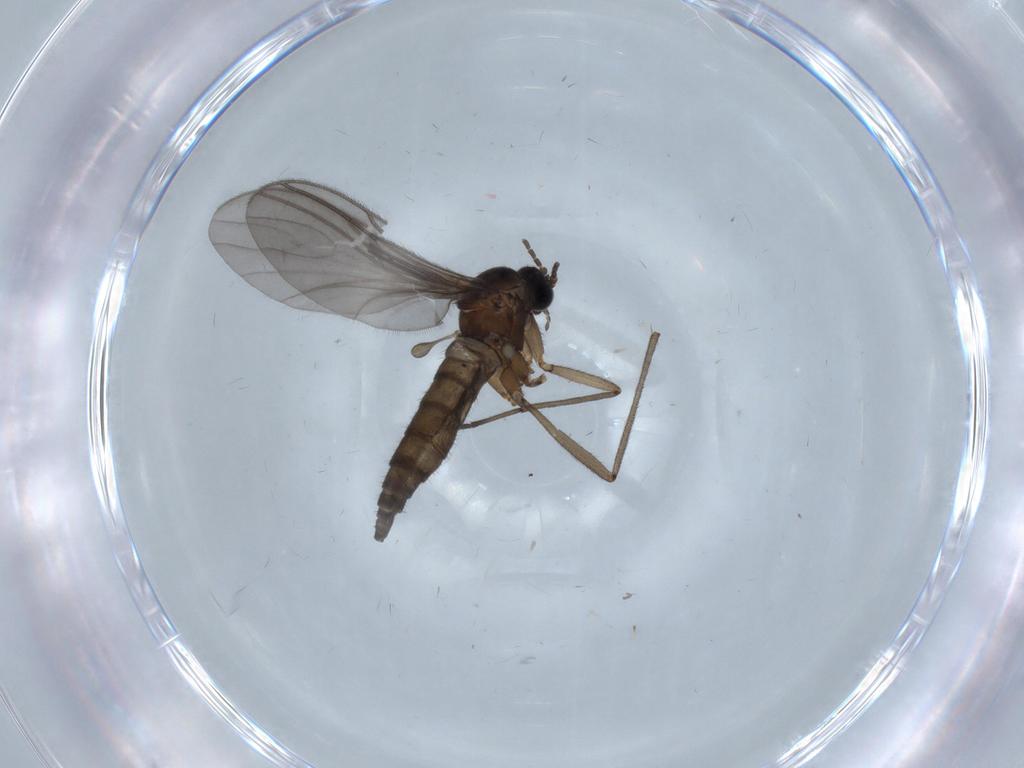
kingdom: Animalia
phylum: Arthropoda
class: Insecta
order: Diptera
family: Sciaridae
